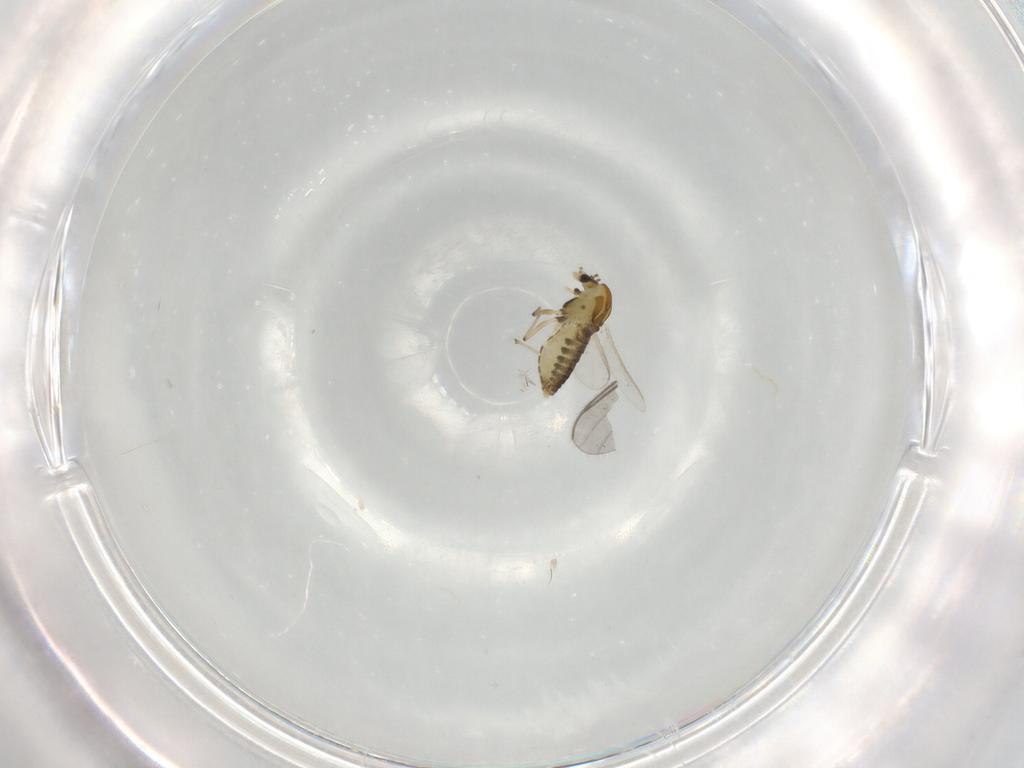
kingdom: Animalia
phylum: Arthropoda
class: Insecta
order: Diptera
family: Chironomidae
